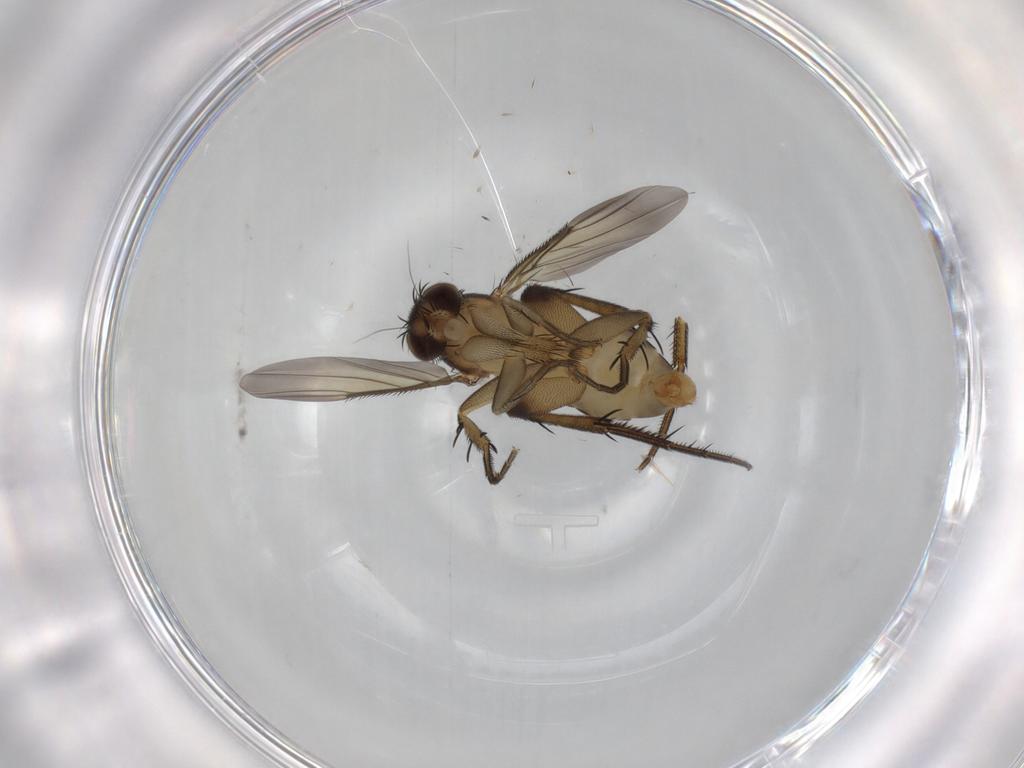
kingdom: Animalia
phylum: Arthropoda
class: Insecta
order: Diptera
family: Phoridae
